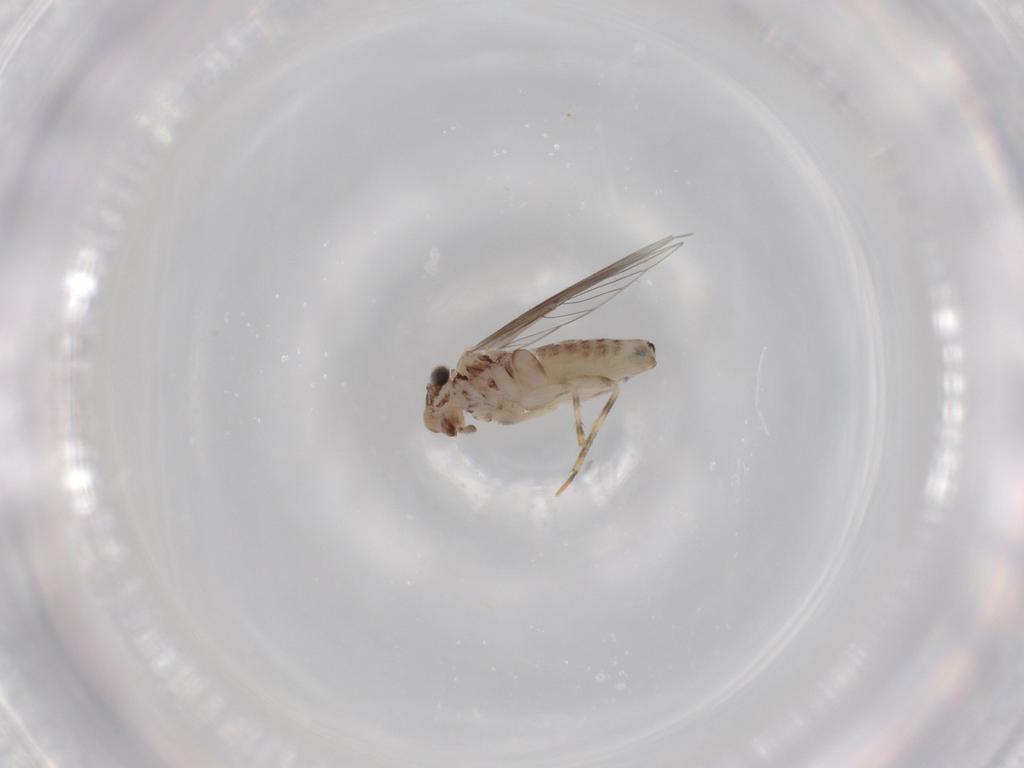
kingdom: Animalia
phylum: Arthropoda
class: Insecta
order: Psocodea
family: Lepidopsocidae
